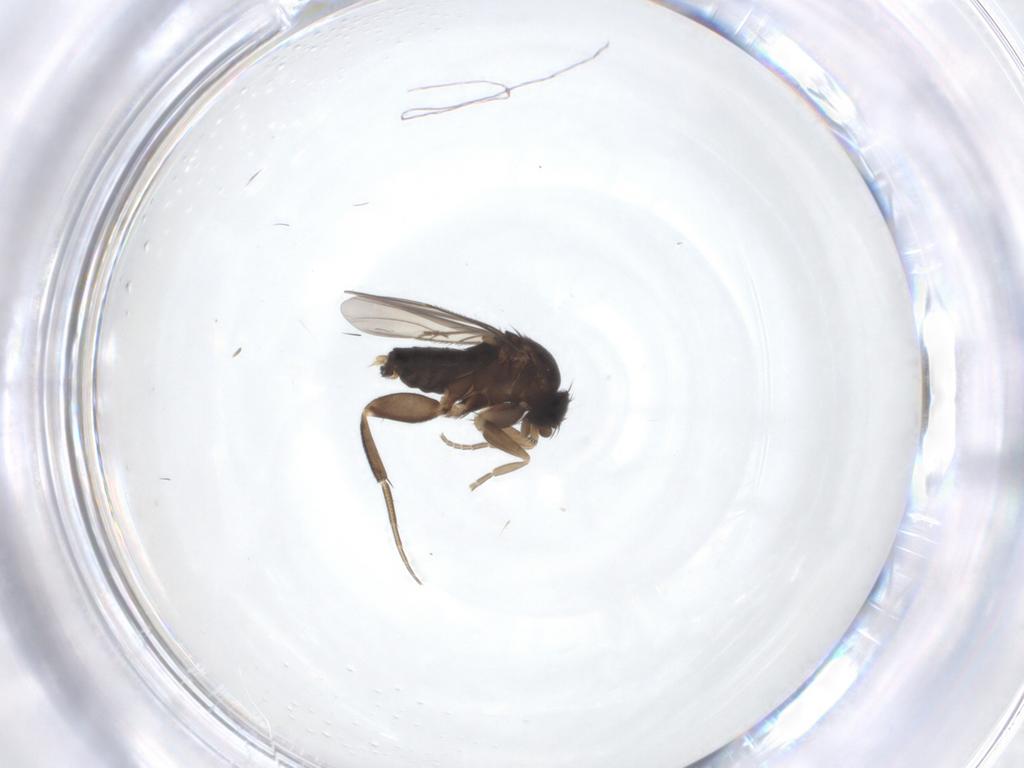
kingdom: Animalia
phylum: Arthropoda
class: Insecta
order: Diptera
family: Phoridae
